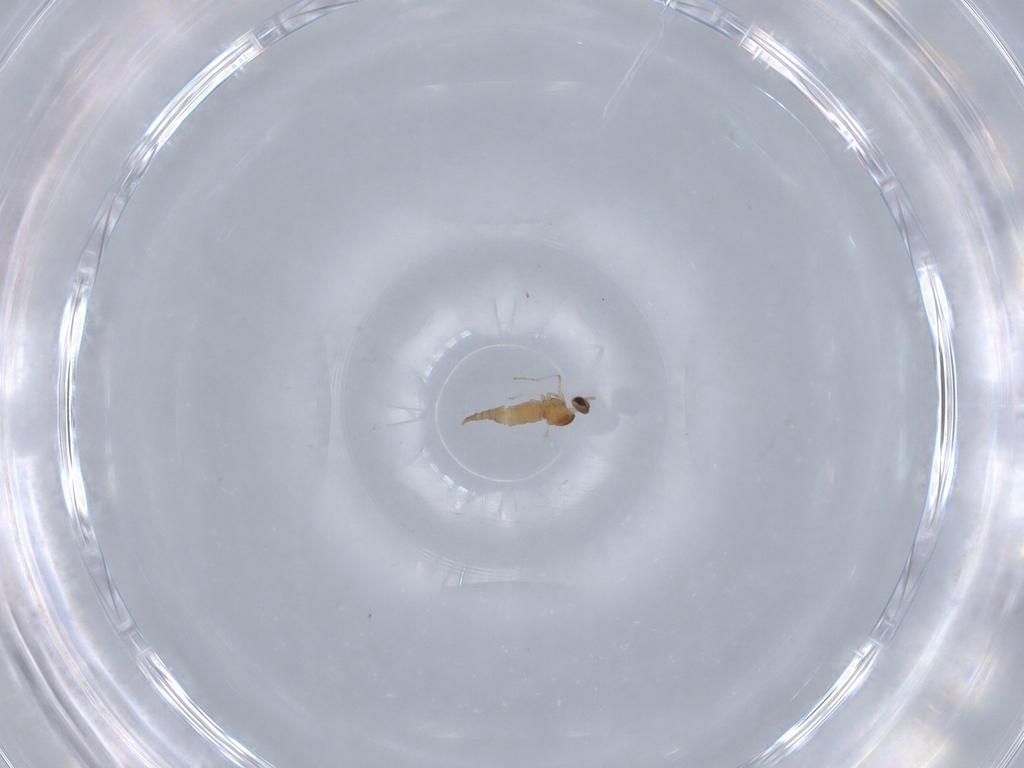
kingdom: Animalia
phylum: Arthropoda
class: Insecta
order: Diptera
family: Cecidomyiidae
